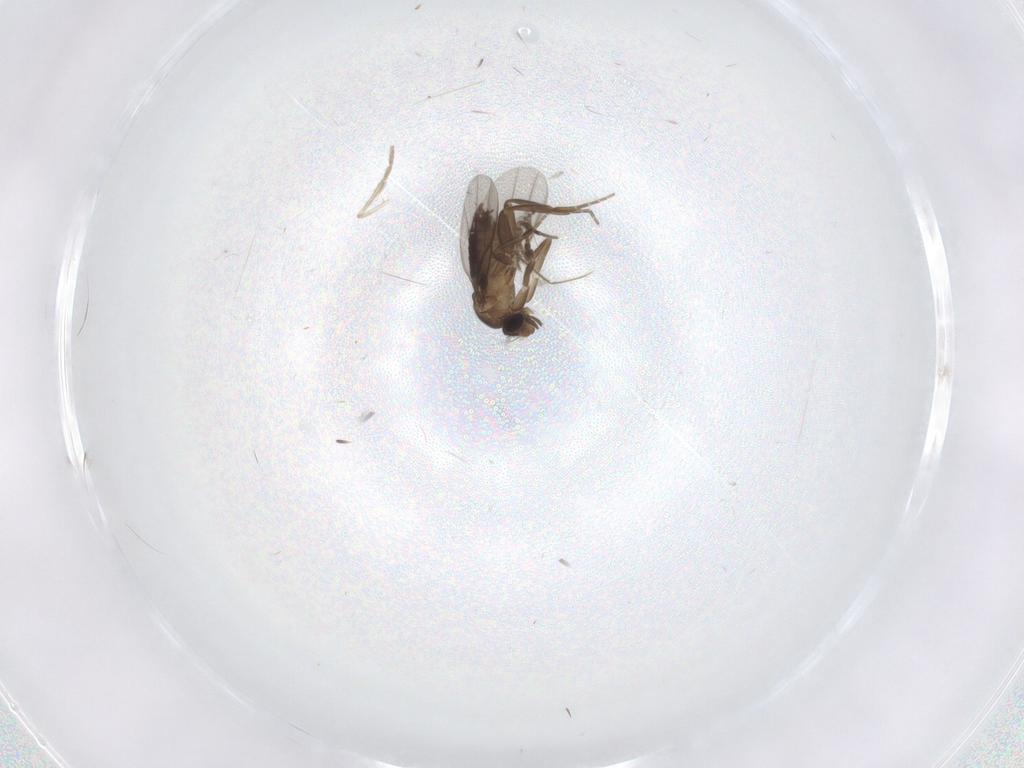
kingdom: Animalia
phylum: Arthropoda
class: Insecta
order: Diptera
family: Phoridae
